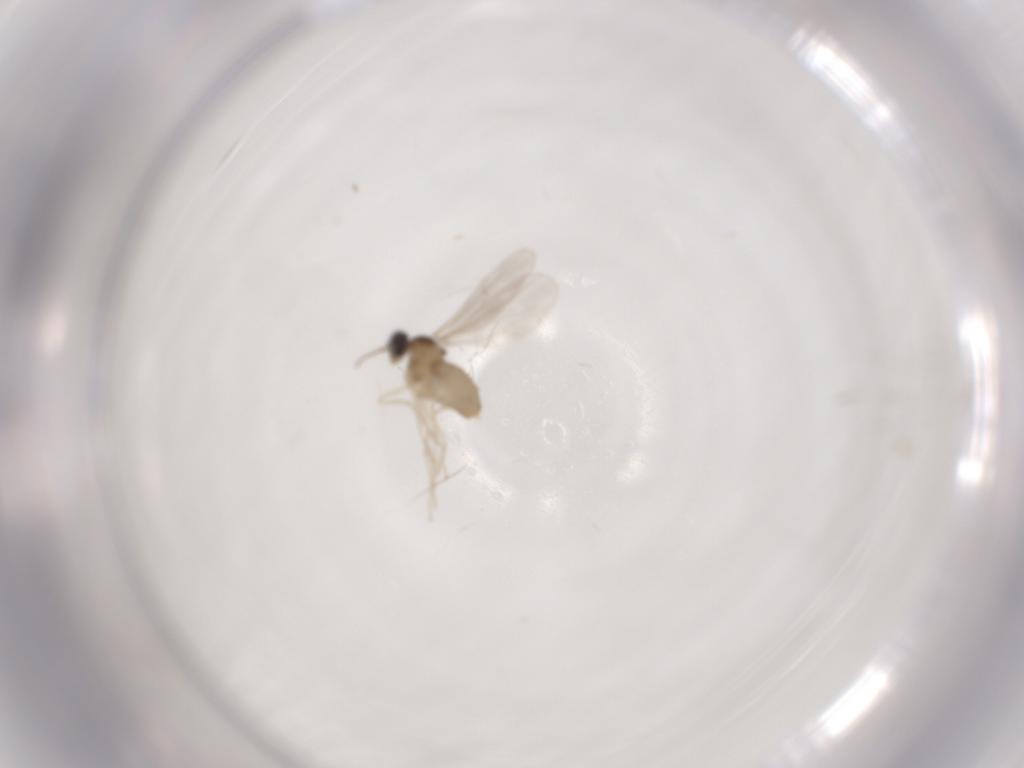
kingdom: Animalia
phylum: Arthropoda
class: Insecta
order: Diptera
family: Cecidomyiidae
